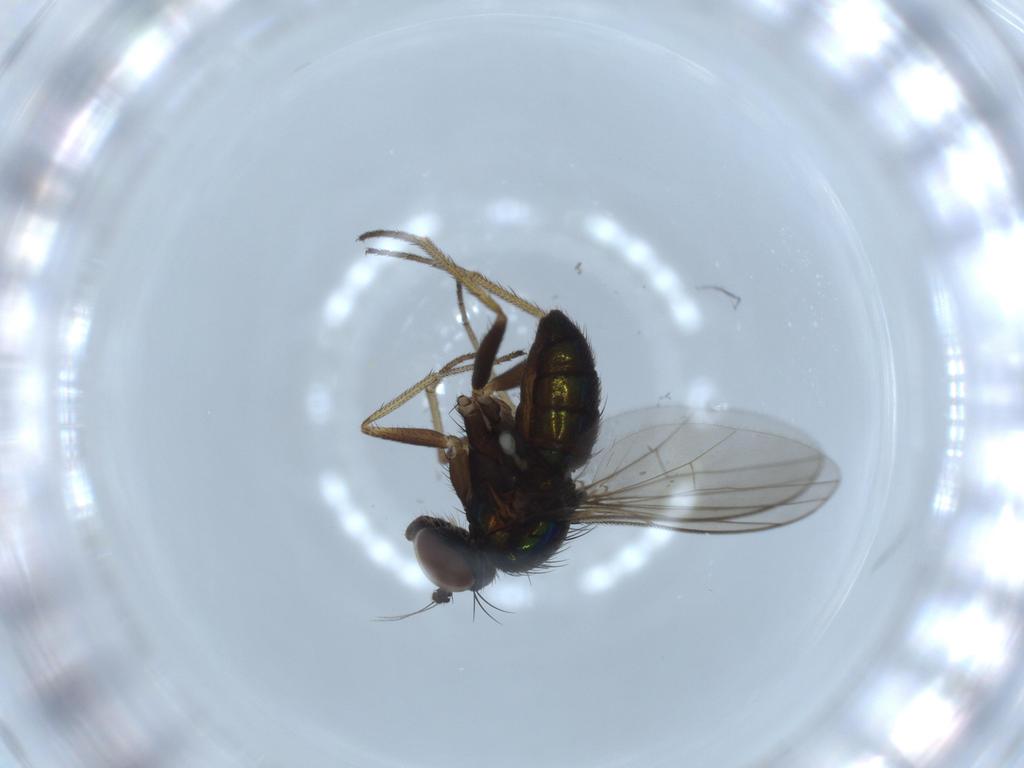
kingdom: Animalia
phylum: Arthropoda
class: Insecta
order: Diptera
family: Dolichopodidae
